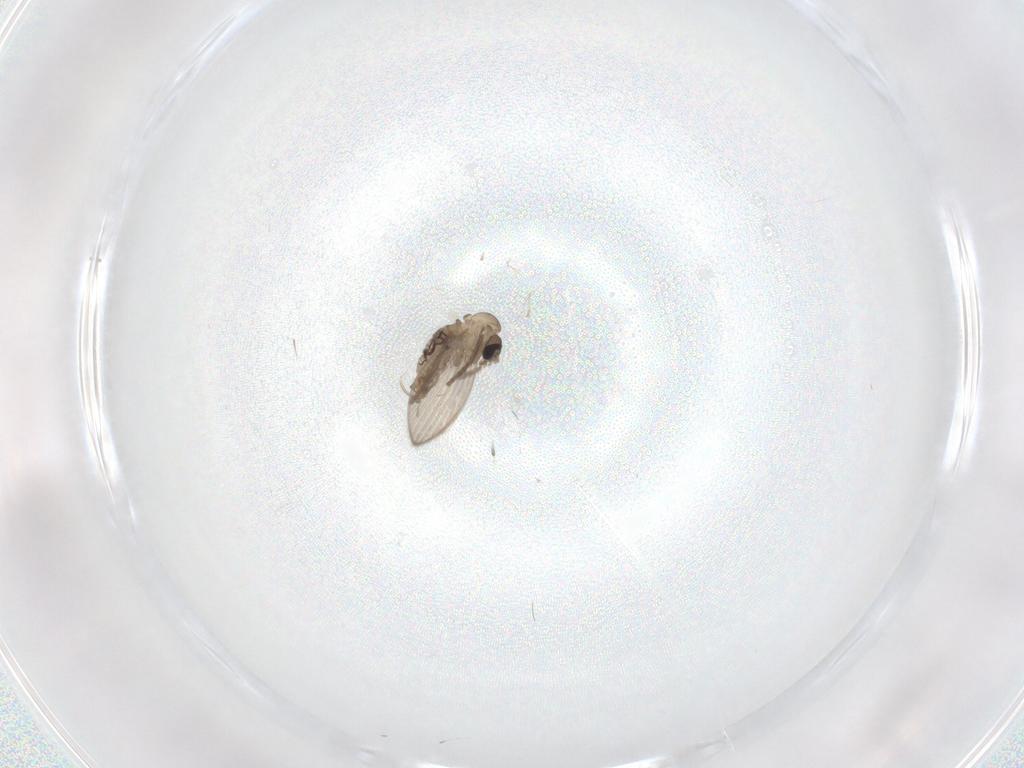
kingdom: Animalia
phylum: Arthropoda
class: Insecta
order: Diptera
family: Psychodidae
